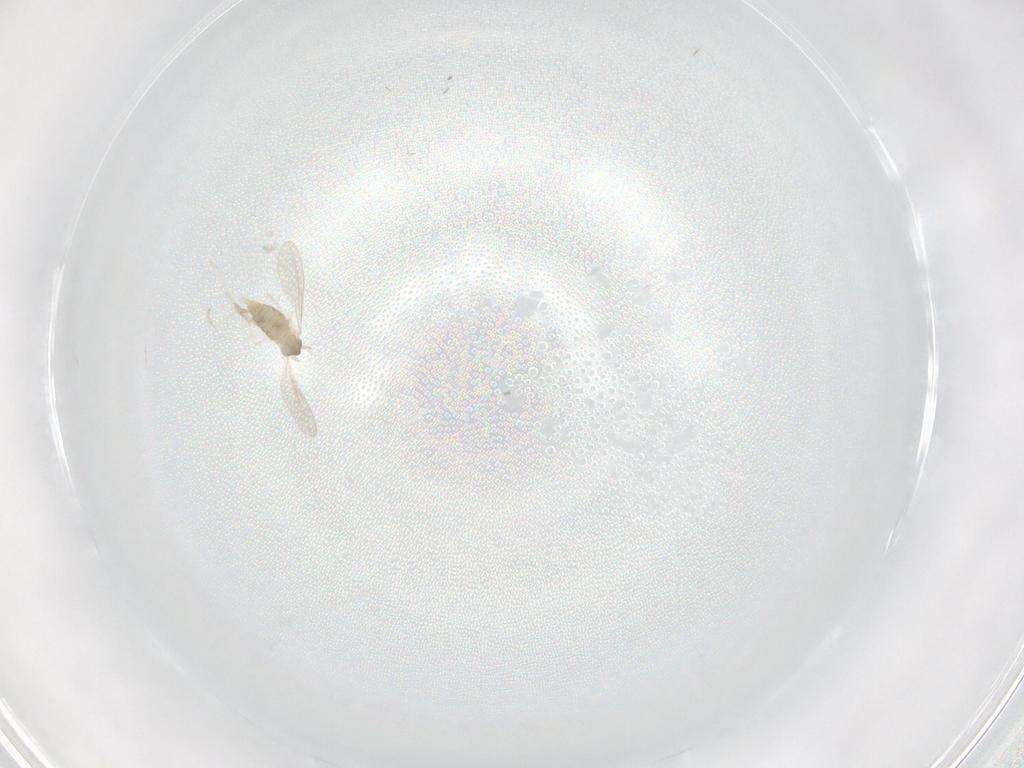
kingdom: Animalia
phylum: Arthropoda
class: Insecta
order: Diptera
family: Cecidomyiidae
